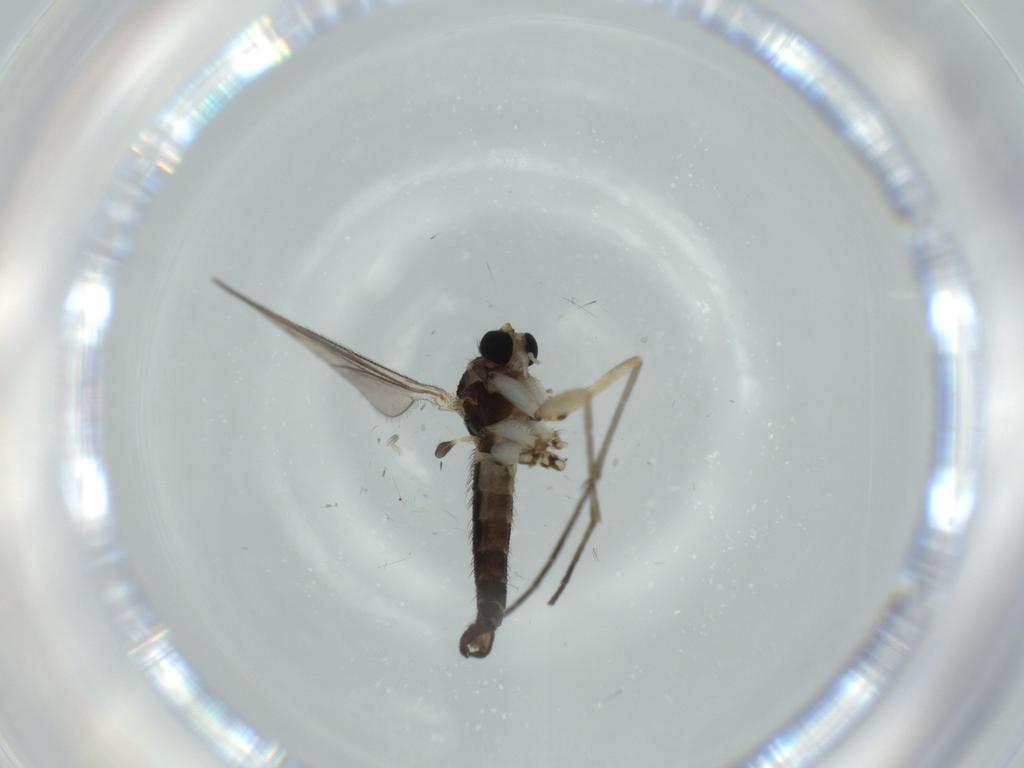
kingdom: Animalia
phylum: Arthropoda
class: Insecta
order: Diptera
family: Sciaridae
